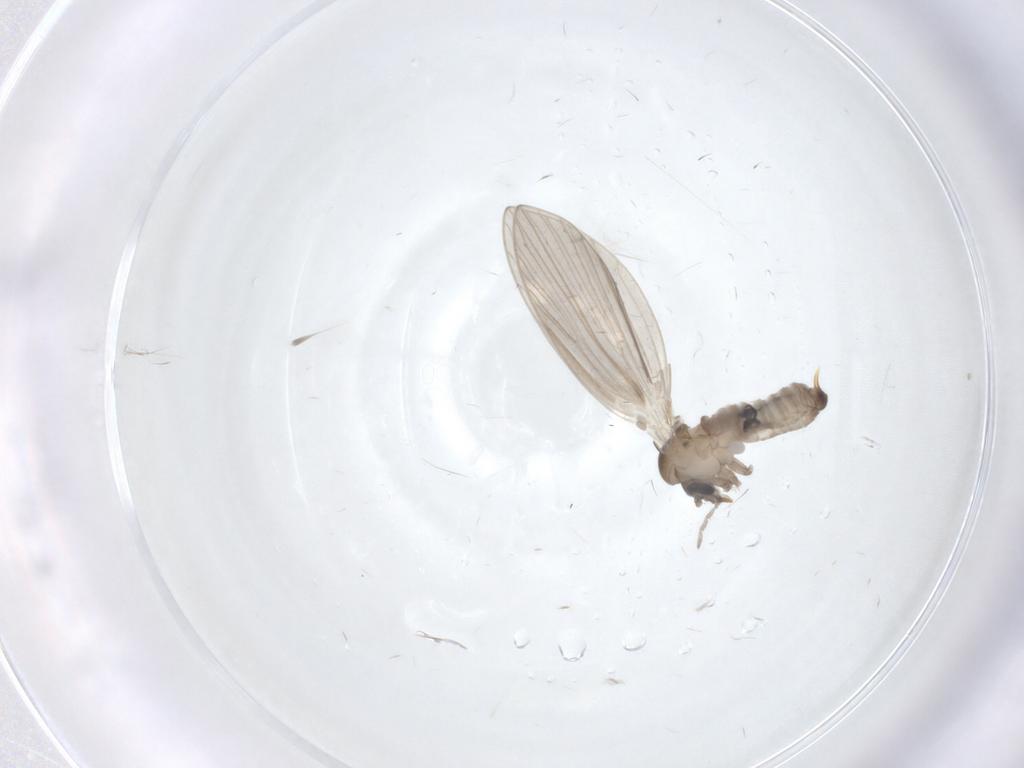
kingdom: Animalia
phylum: Arthropoda
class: Insecta
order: Diptera
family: Psychodidae
